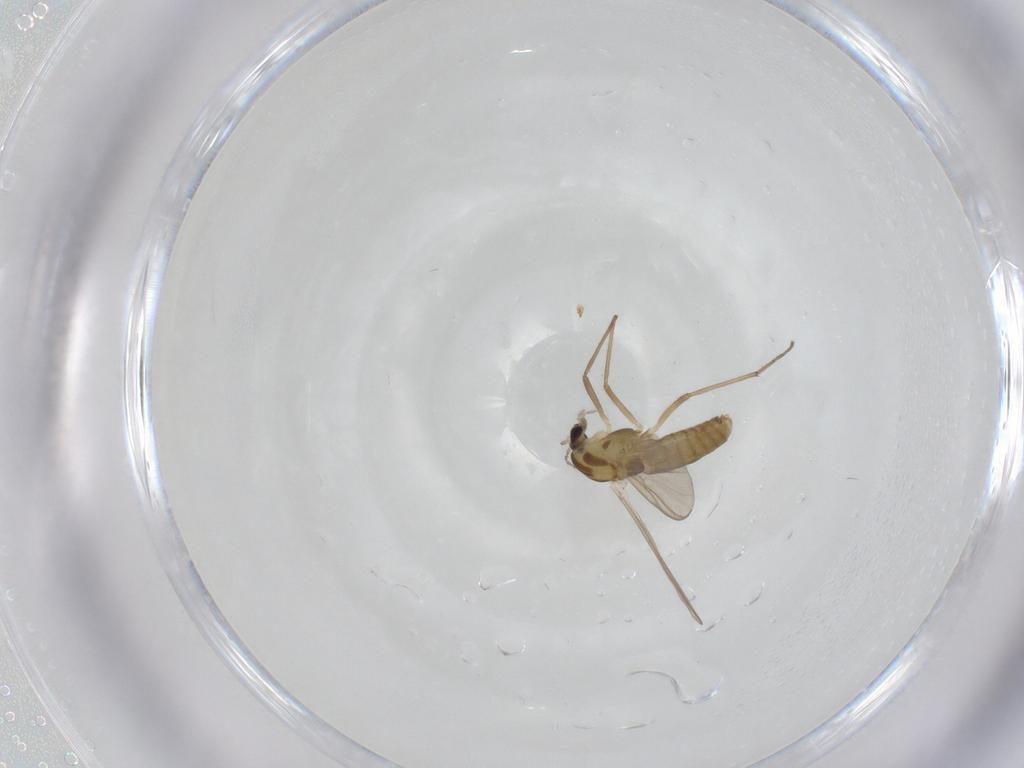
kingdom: Animalia
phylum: Arthropoda
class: Insecta
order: Diptera
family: Chironomidae
